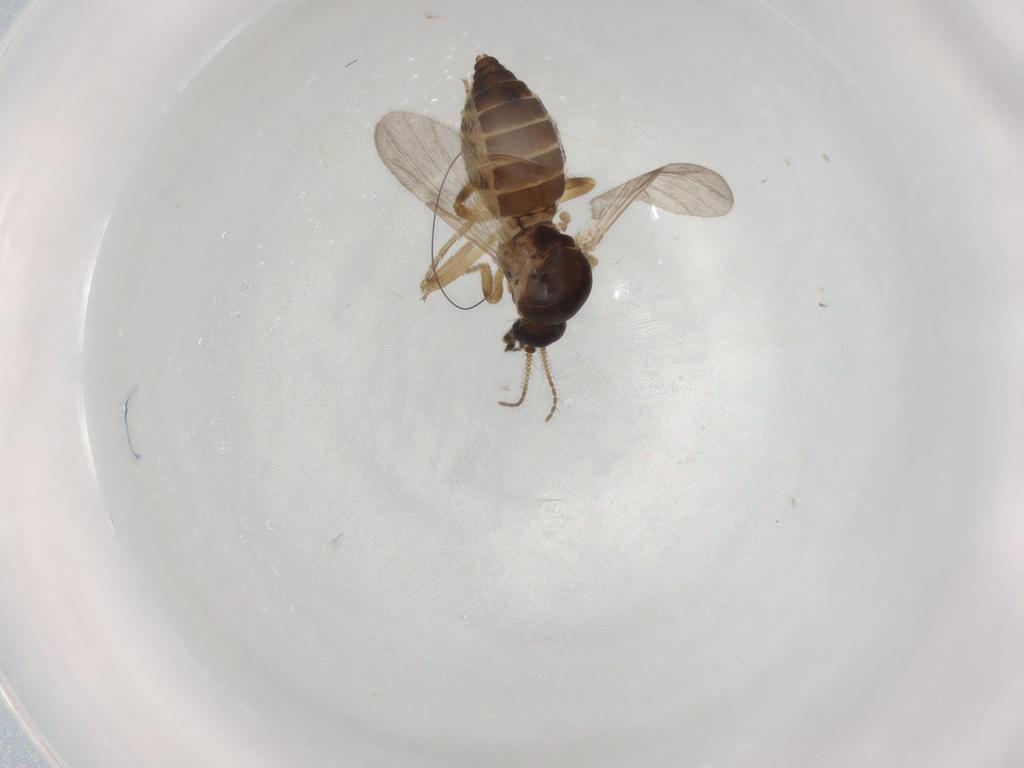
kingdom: Animalia
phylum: Arthropoda
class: Insecta
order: Diptera
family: Ceratopogonidae
